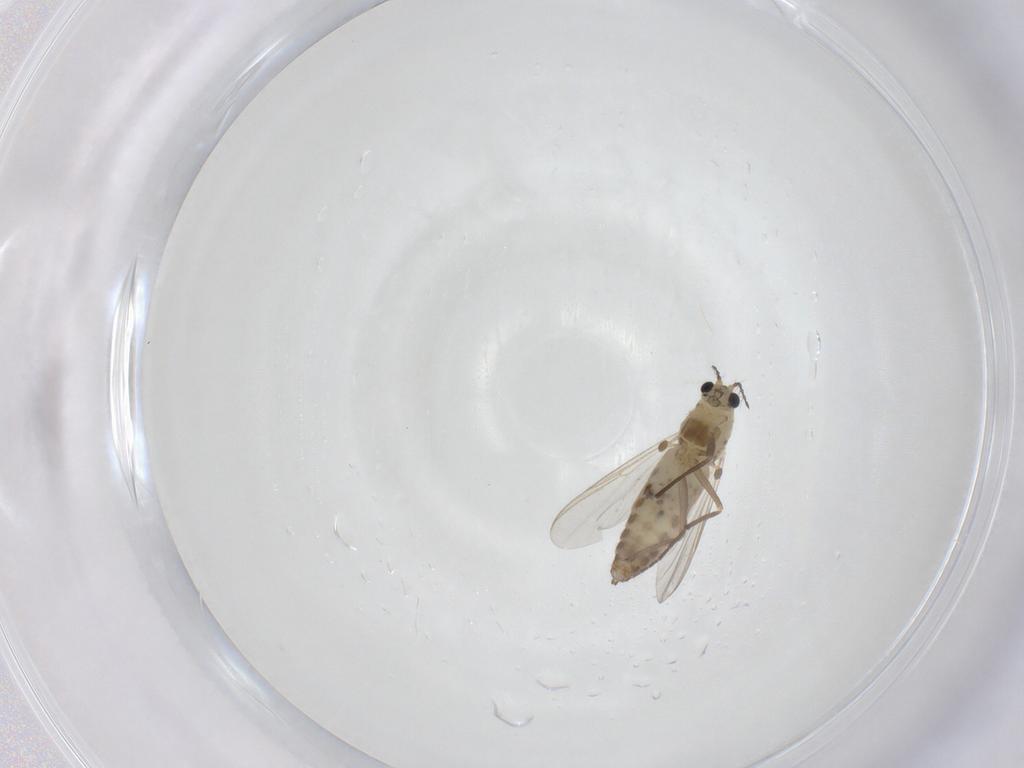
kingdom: Animalia
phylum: Arthropoda
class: Insecta
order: Diptera
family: Chironomidae
